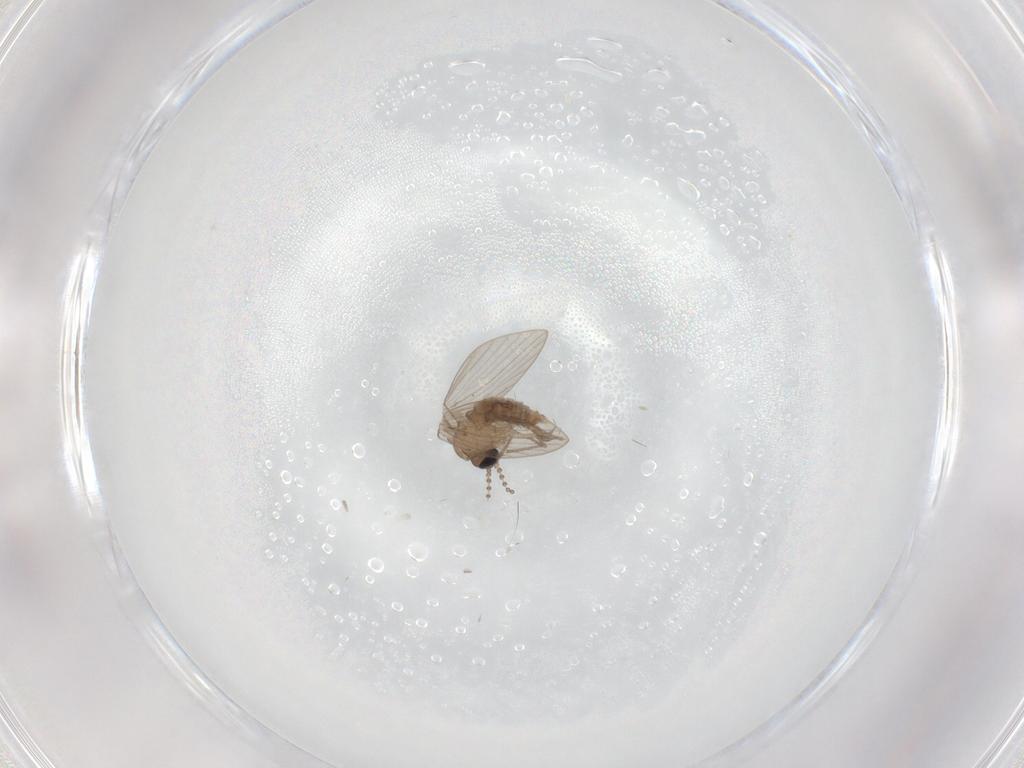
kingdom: Animalia
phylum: Arthropoda
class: Insecta
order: Diptera
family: Psychodidae
